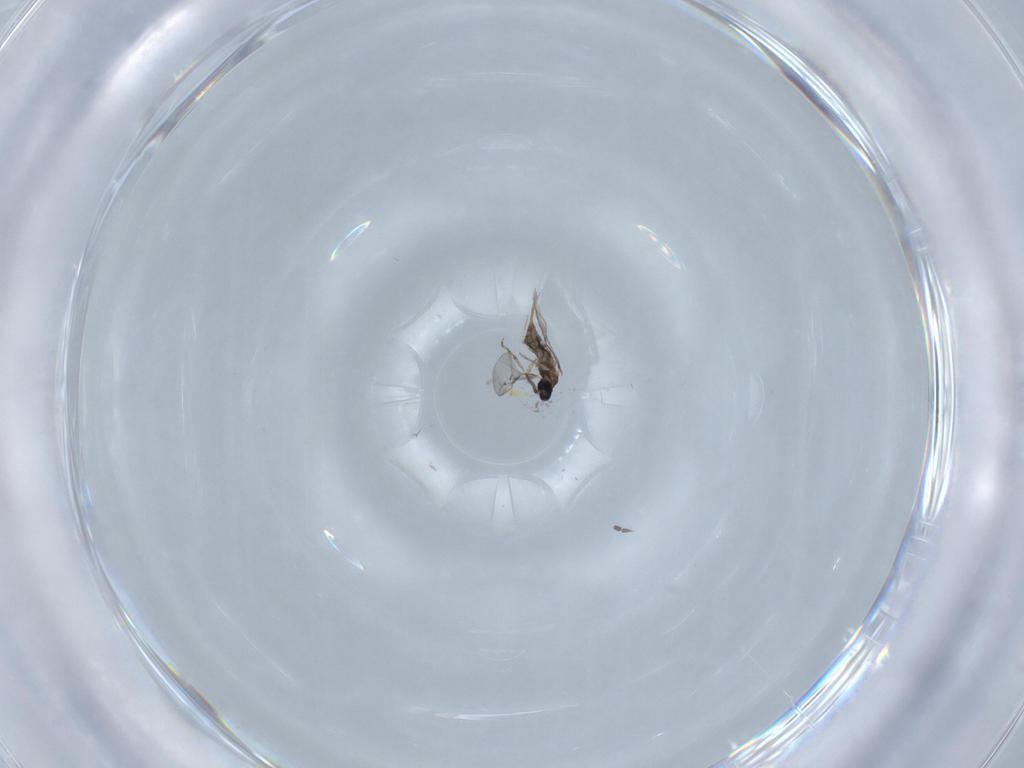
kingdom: Animalia
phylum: Arthropoda
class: Insecta
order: Diptera
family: Cecidomyiidae
